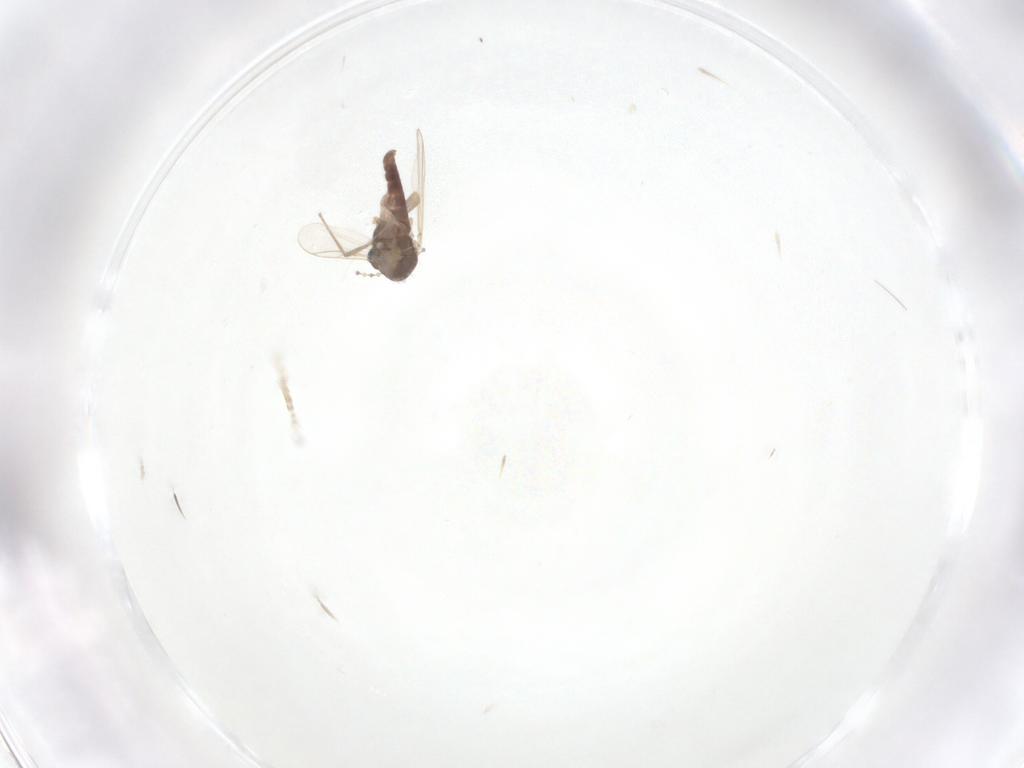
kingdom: Animalia
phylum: Arthropoda
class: Insecta
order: Diptera
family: Chironomidae
